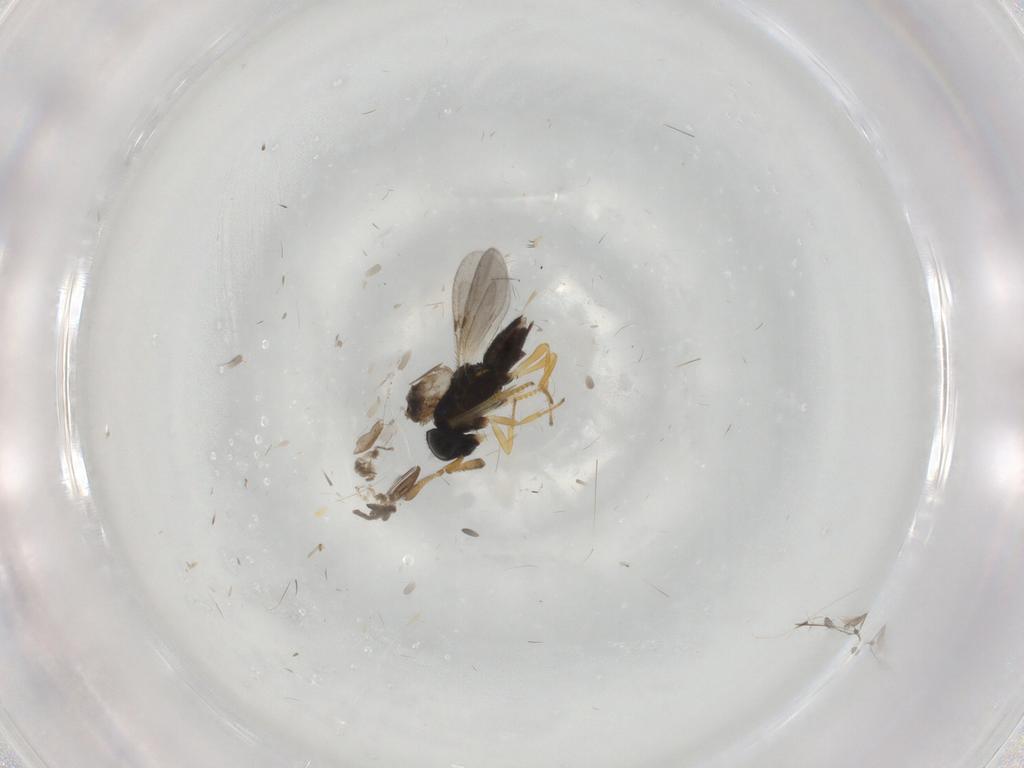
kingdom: Animalia
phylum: Arthropoda
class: Insecta
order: Hymenoptera
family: Encyrtidae
